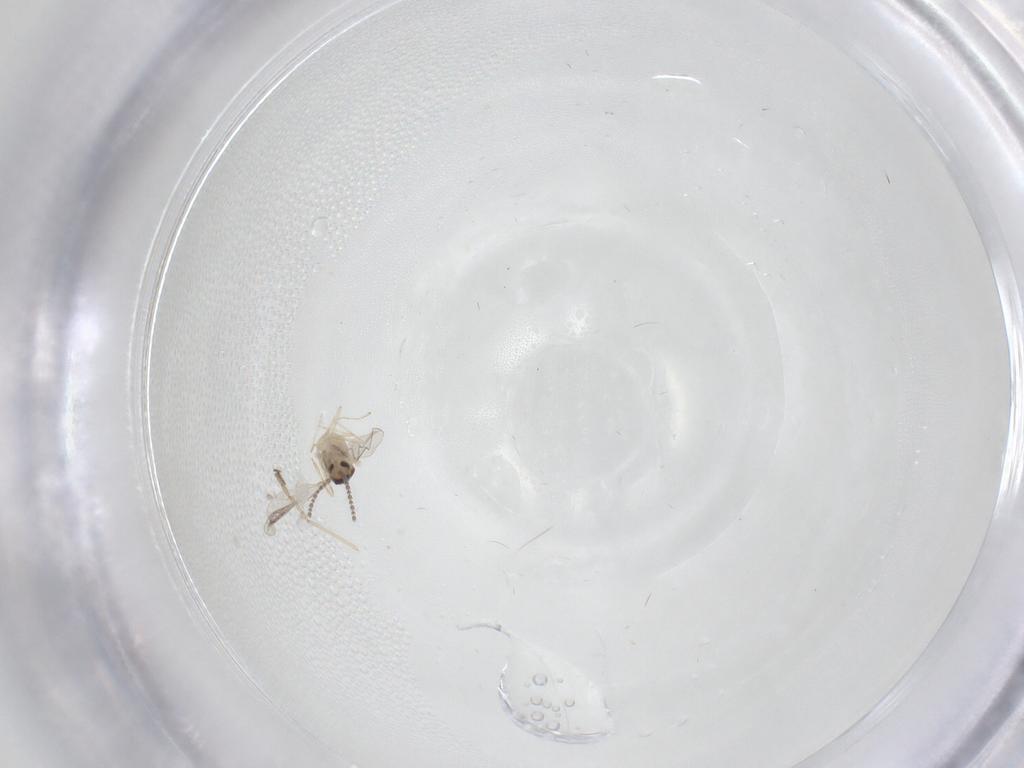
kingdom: Animalia
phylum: Arthropoda
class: Insecta
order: Diptera
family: Cecidomyiidae
